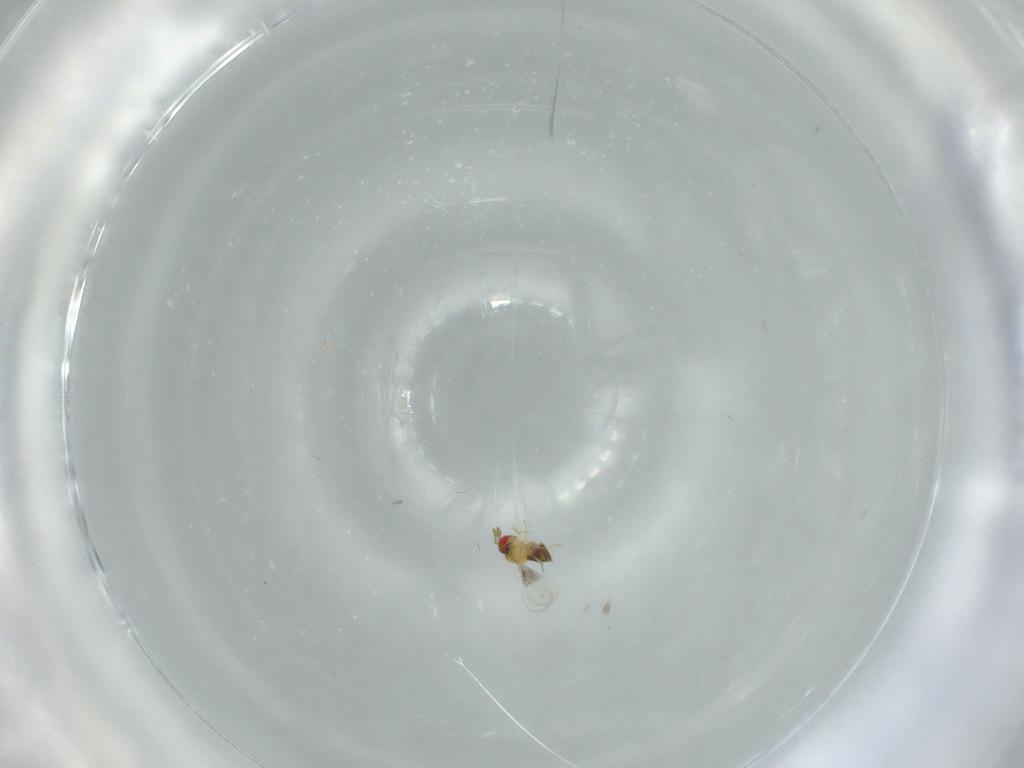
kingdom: Animalia
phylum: Arthropoda
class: Insecta
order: Hymenoptera
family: Trichogrammatidae
